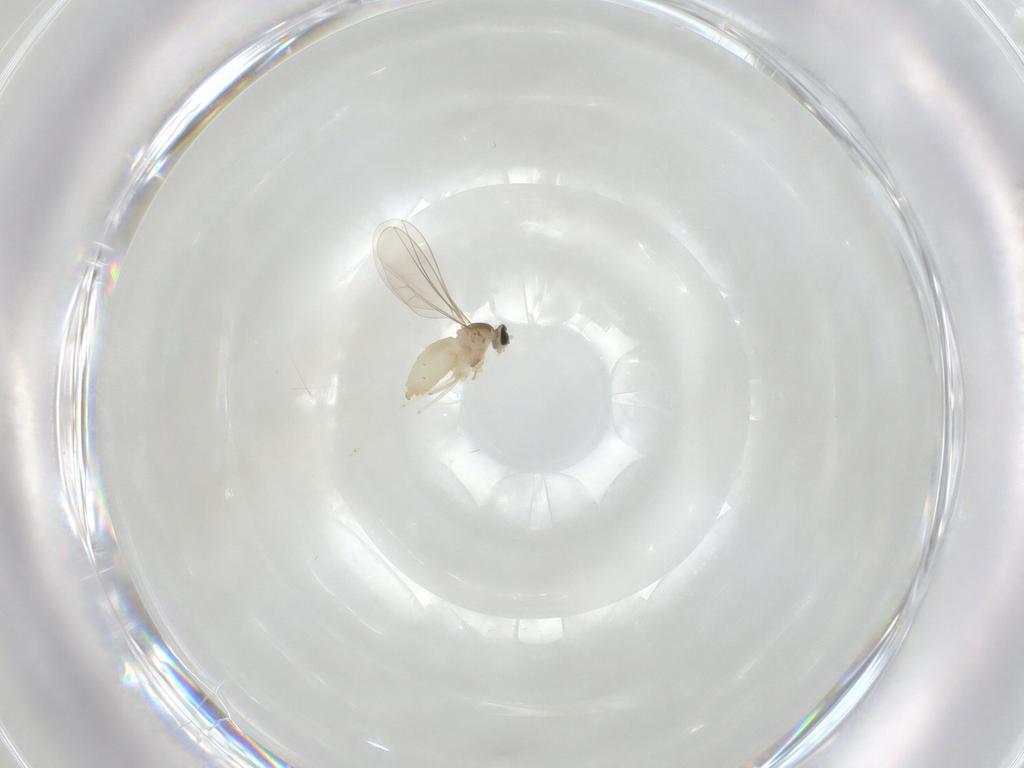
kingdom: Animalia
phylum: Arthropoda
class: Insecta
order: Diptera
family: Cecidomyiidae
